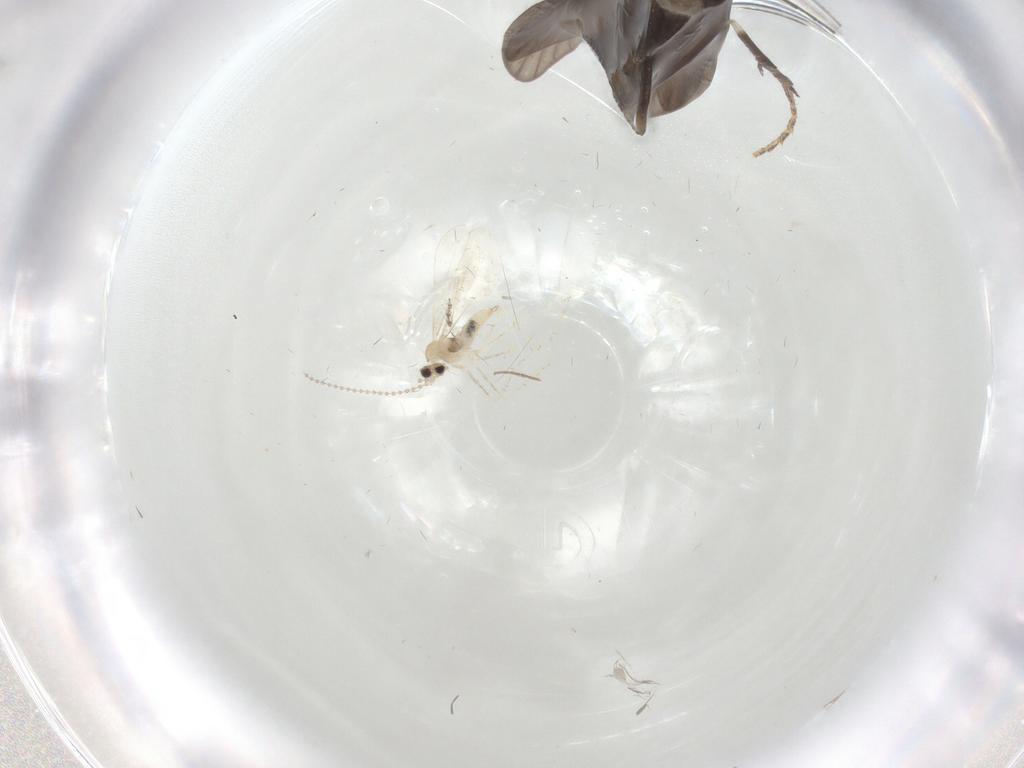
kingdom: Animalia
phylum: Arthropoda
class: Insecta
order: Trichoptera
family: Xiphocentronidae
